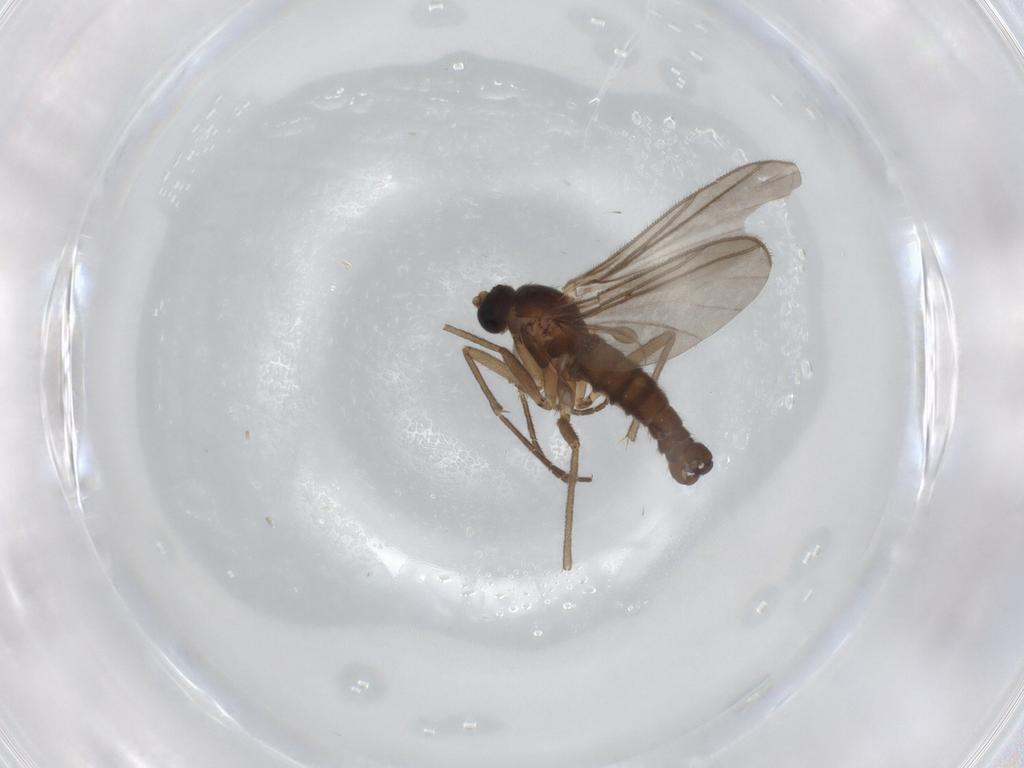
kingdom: Animalia
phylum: Arthropoda
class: Insecta
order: Diptera
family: Sciaridae
